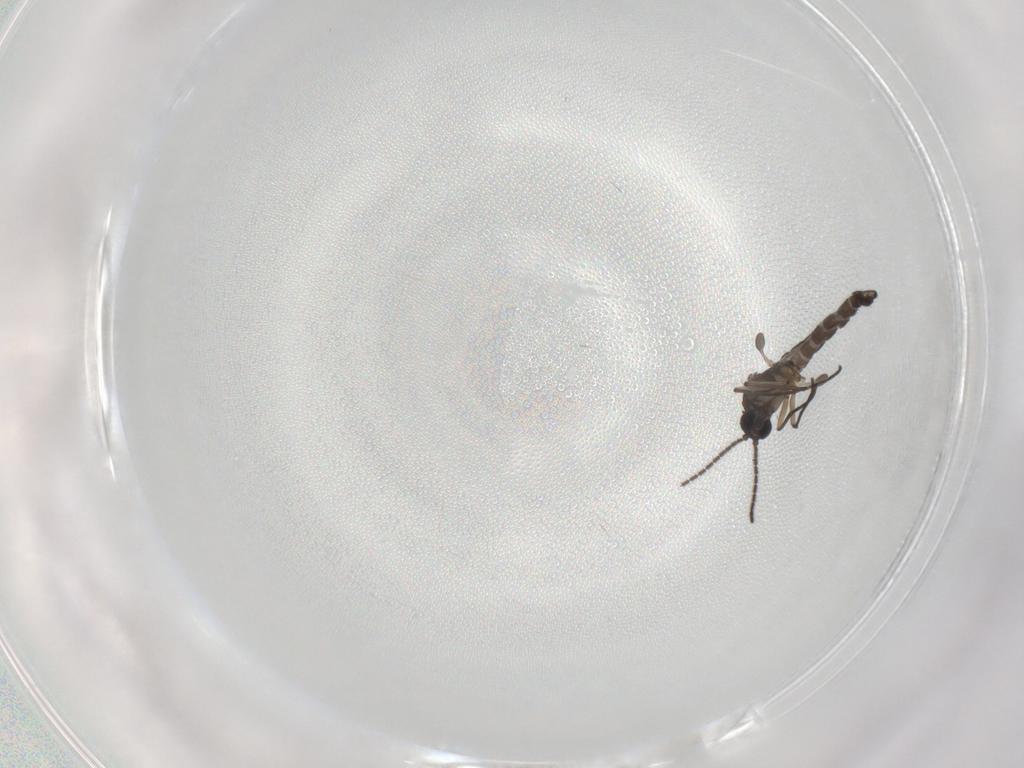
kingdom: Animalia
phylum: Arthropoda
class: Insecta
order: Diptera
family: Sciaridae
